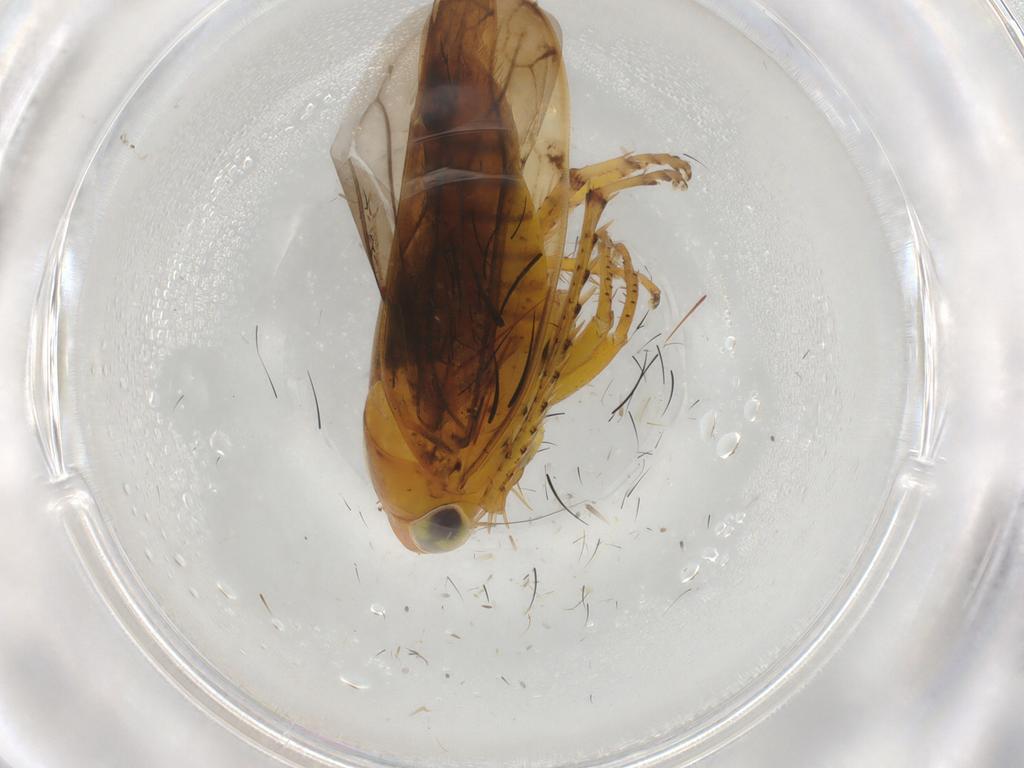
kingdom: Animalia
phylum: Arthropoda
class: Insecta
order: Hemiptera
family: Cicadellidae
